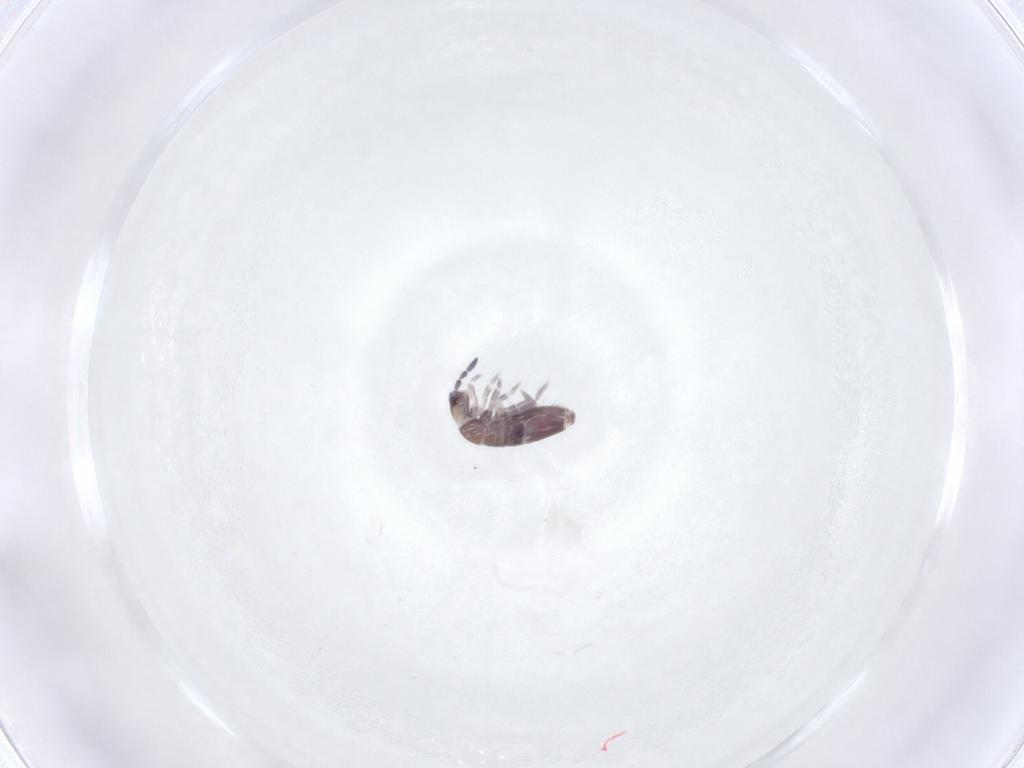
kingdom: Animalia
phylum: Arthropoda
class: Collembola
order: Entomobryomorpha
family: Entomobryidae
